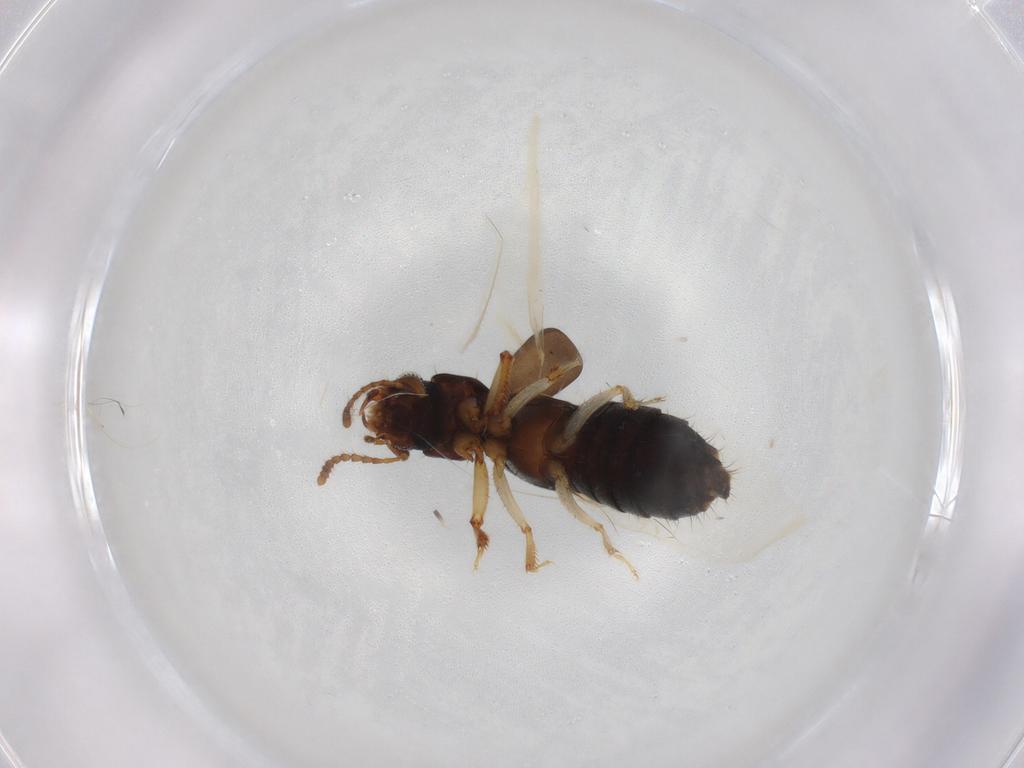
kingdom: Animalia
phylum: Arthropoda
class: Insecta
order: Coleoptera
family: Staphylinidae
